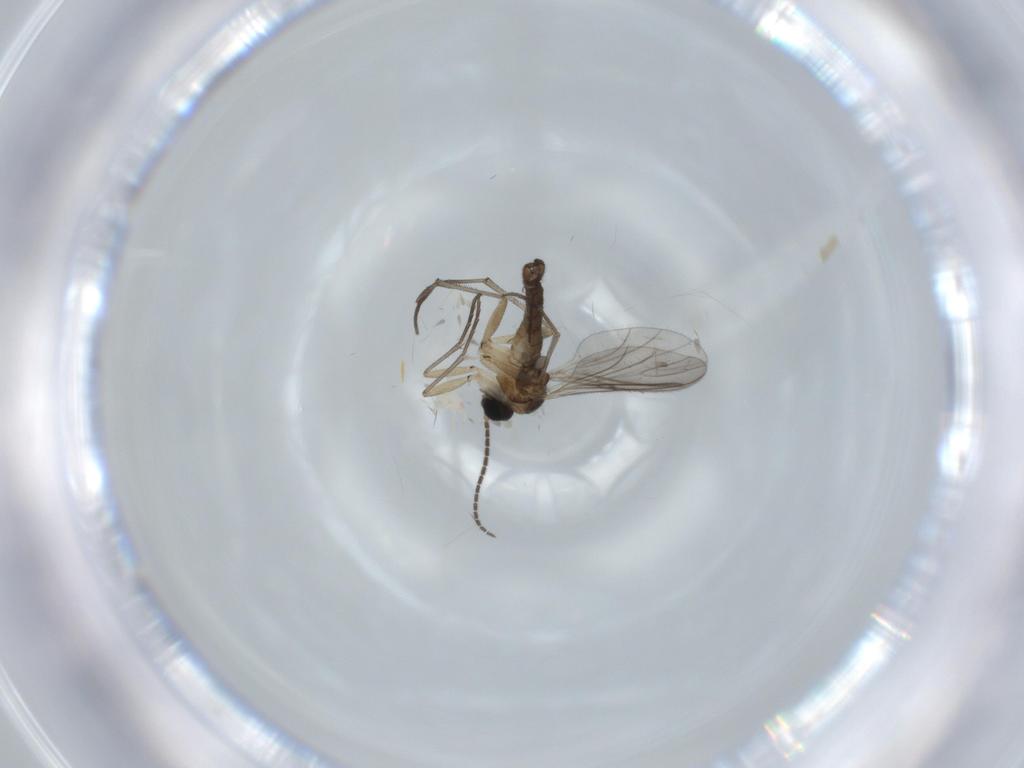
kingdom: Animalia
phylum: Arthropoda
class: Insecta
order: Diptera
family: Sciaridae
